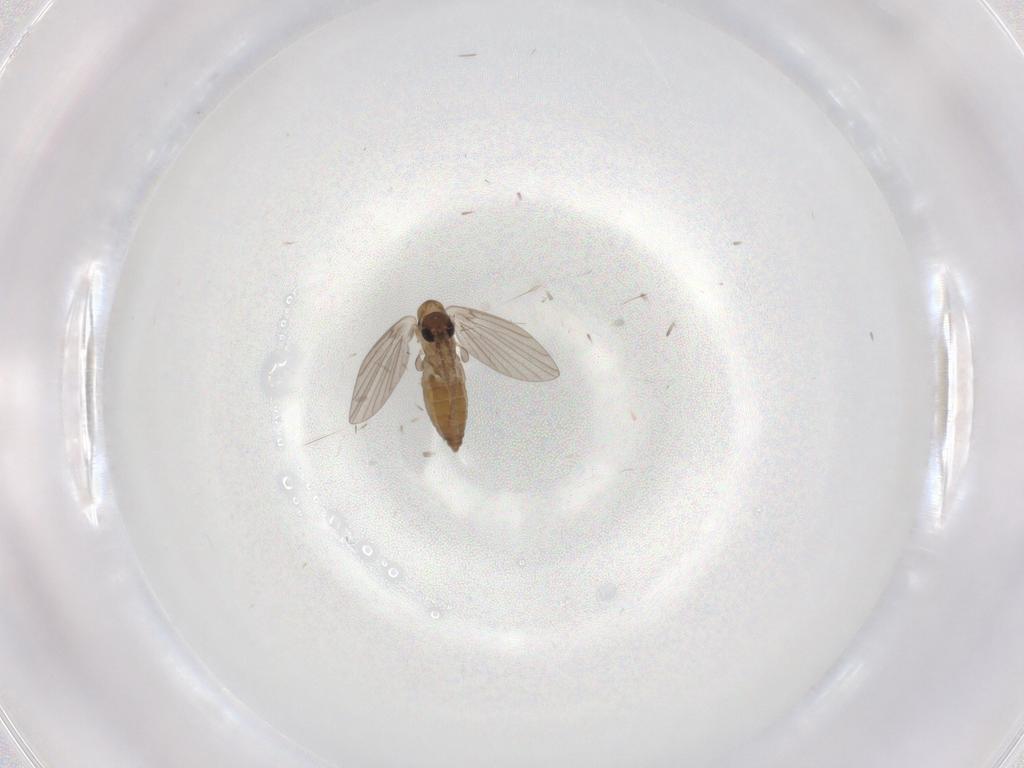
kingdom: Animalia
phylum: Arthropoda
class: Insecta
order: Diptera
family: Psychodidae
